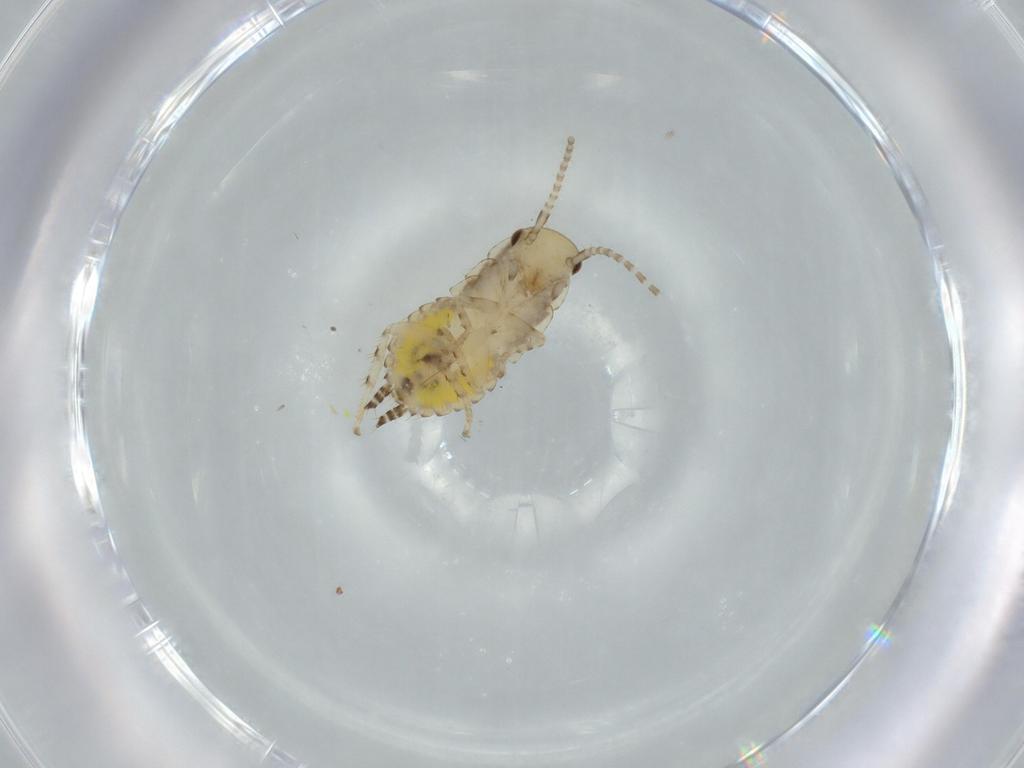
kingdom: Animalia
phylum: Arthropoda
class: Insecta
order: Blattodea
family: Ectobiidae
